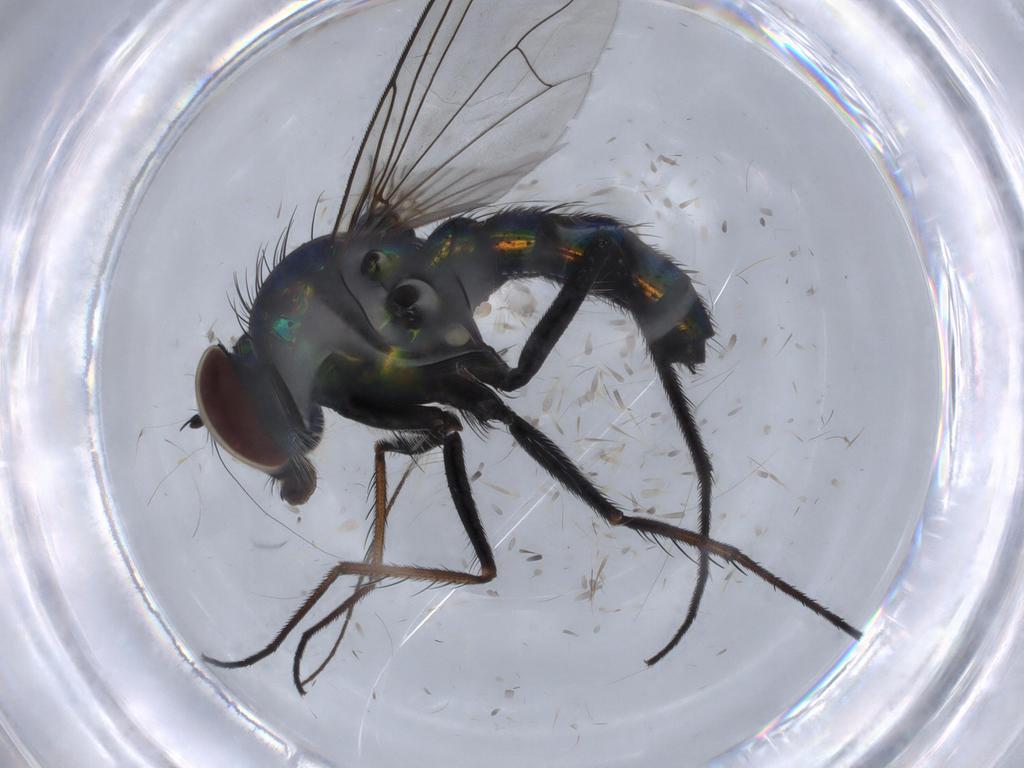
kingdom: Animalia
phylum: Arthropoda
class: Insecta
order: Diptera
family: Dolichopodidae
